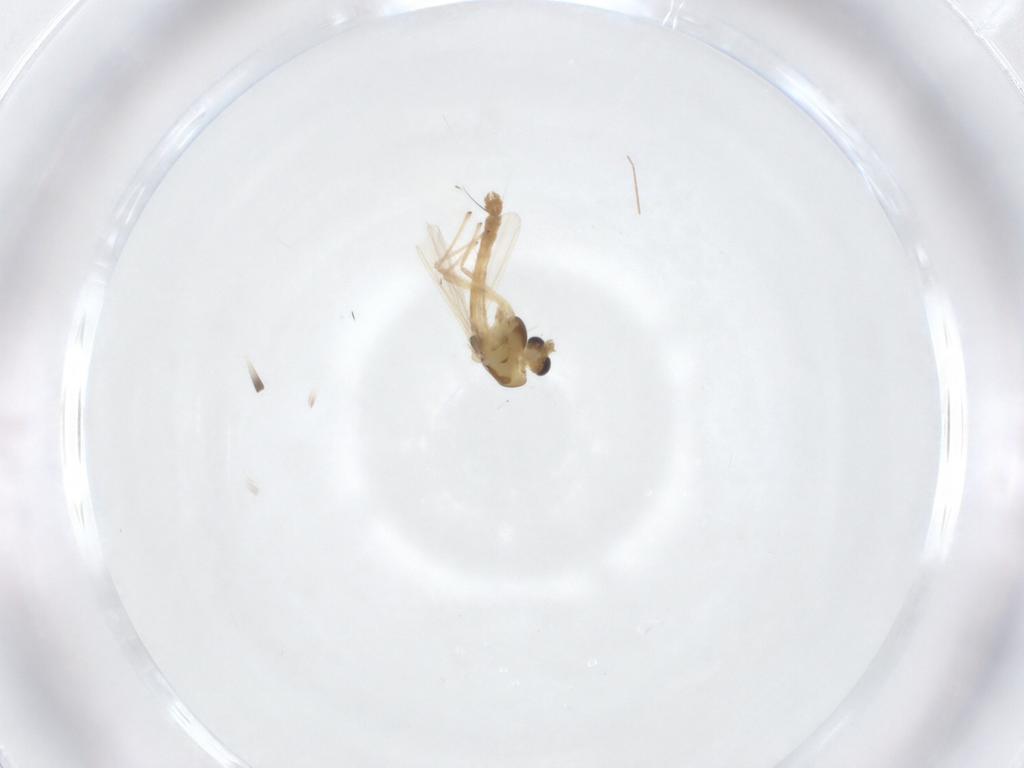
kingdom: Animalia
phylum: Arthropoda
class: Insecta
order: Diptera
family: Chironomidae
